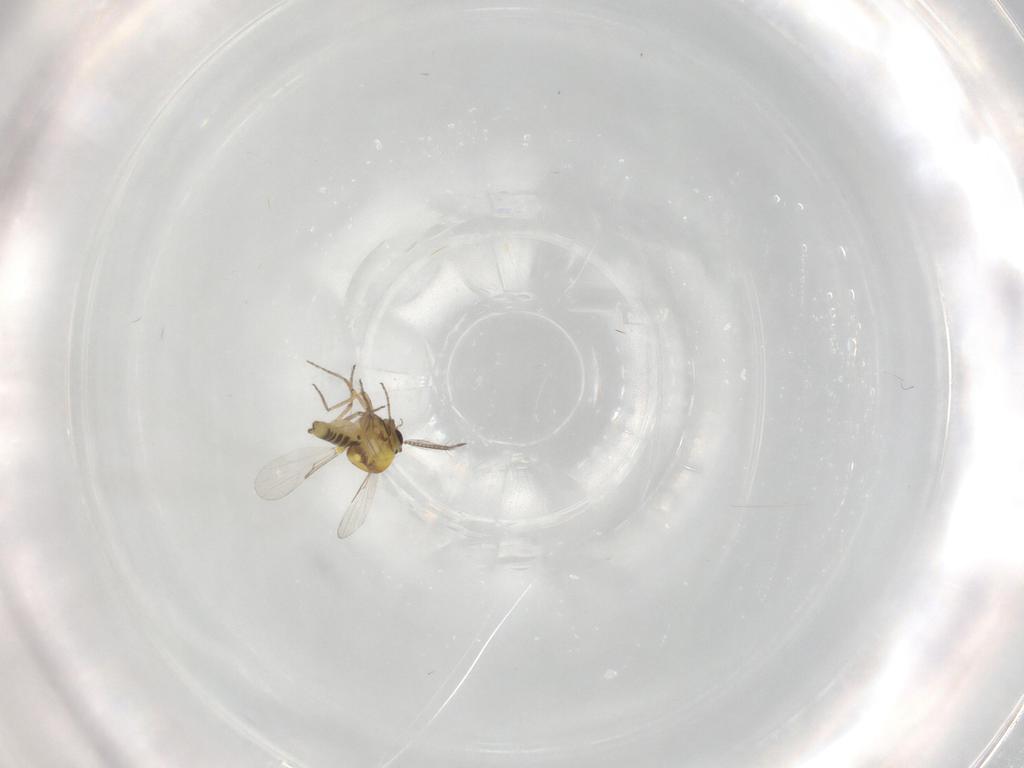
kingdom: Animalia
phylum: Arthropoda
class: Insecta
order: Diptera
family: Ceratopogonidae
